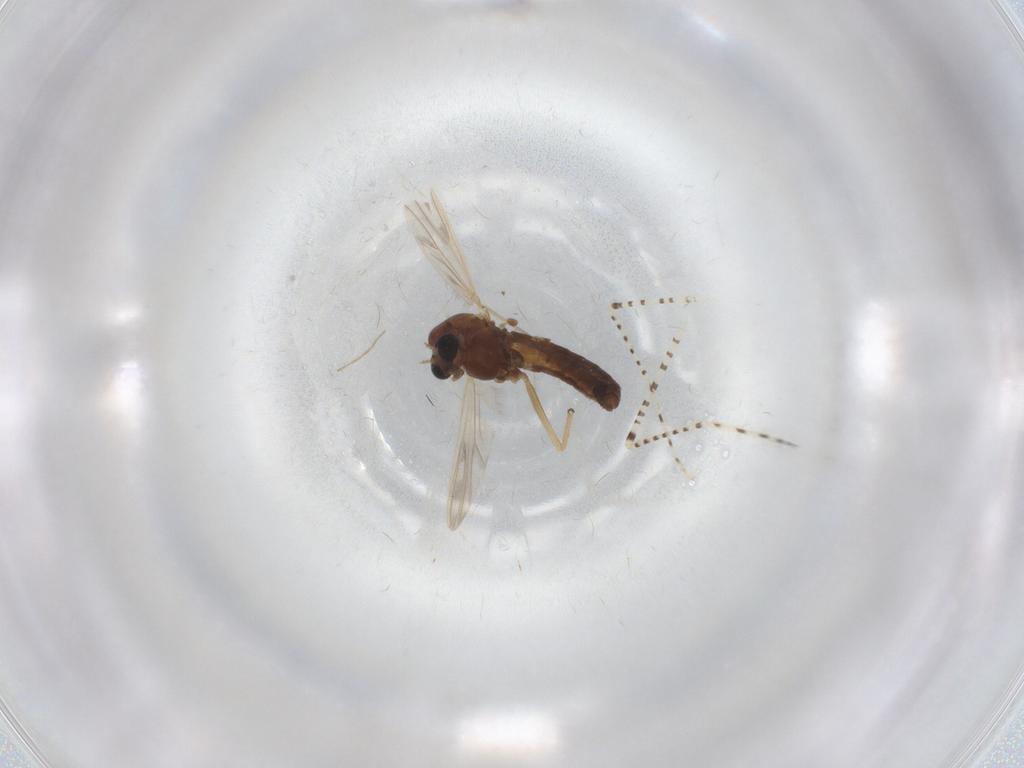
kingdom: Animalia
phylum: Arthropoda
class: Insecta
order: Diptera
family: Chironomidae
